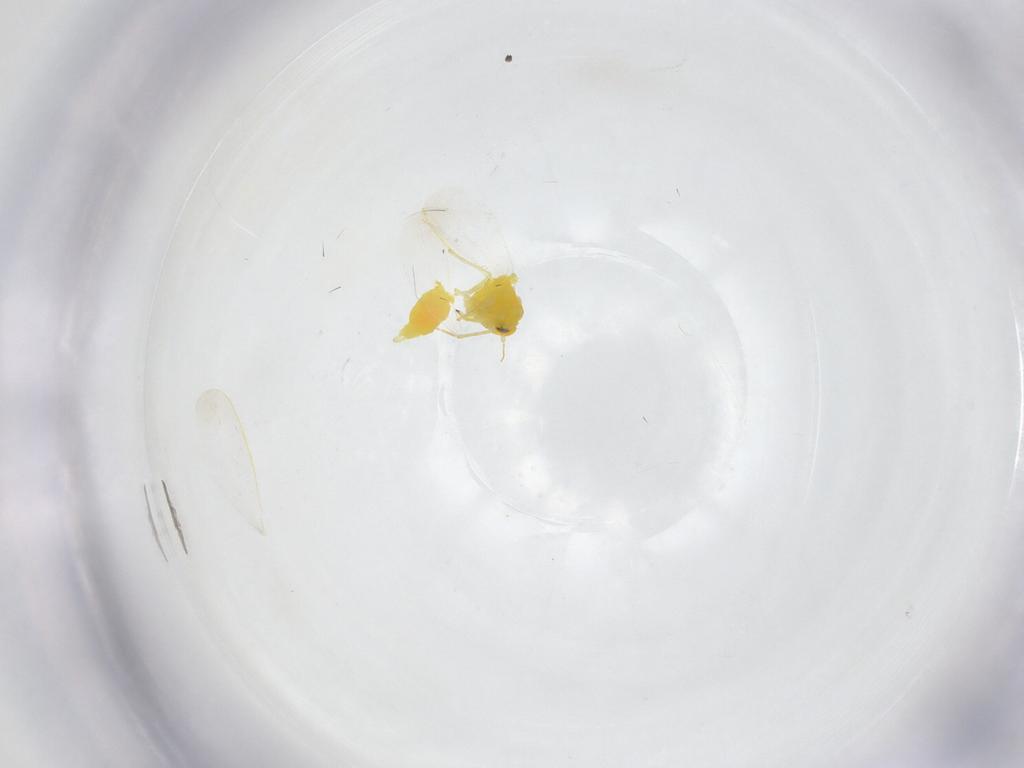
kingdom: Animalia
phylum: Arthropoda
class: Insecta
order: Hemiptera
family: Aleyrodidae
